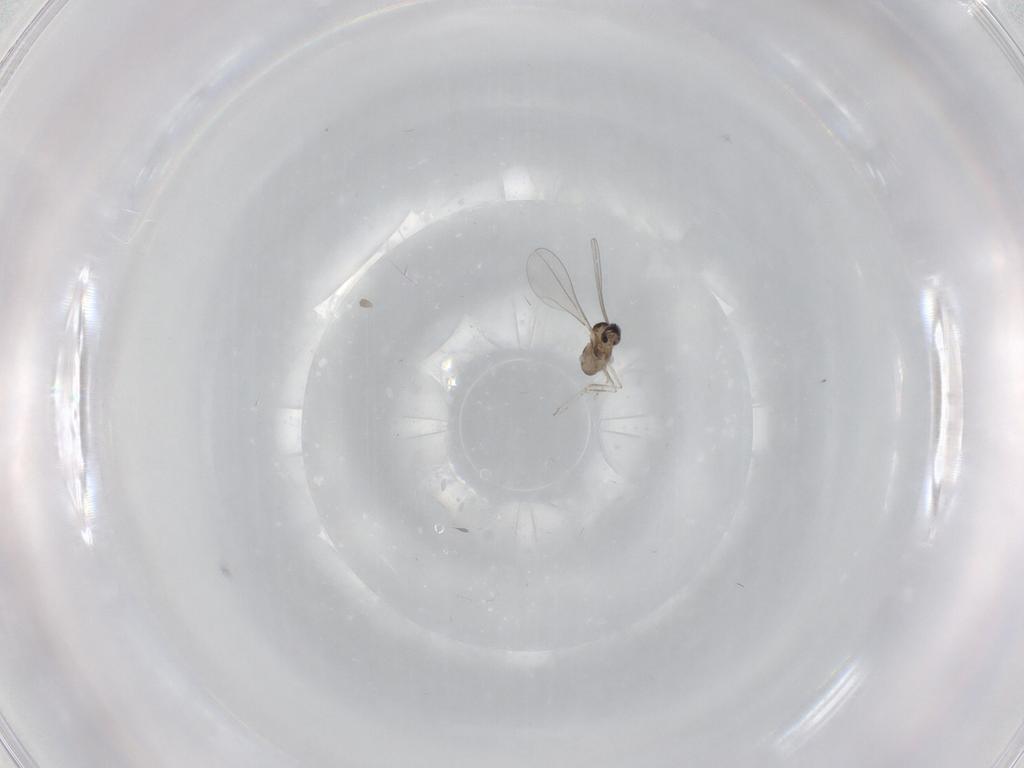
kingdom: Animalia
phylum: Arthropoda
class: Insecta
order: Diptera
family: Cecidomyiidae
